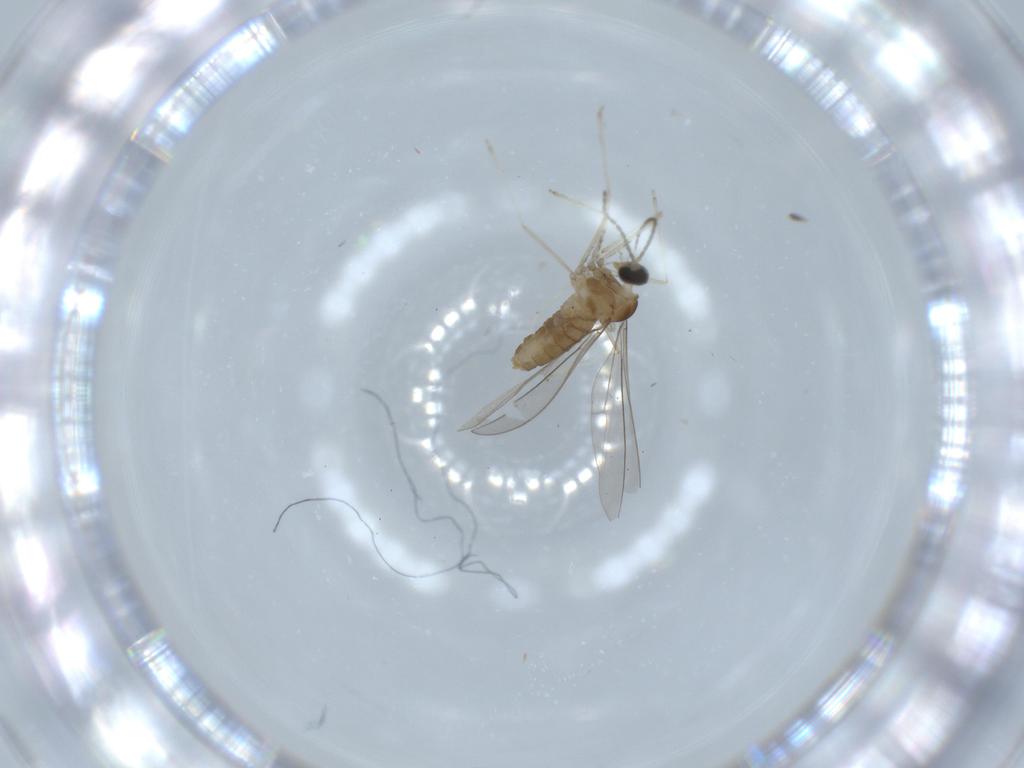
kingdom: Animalia
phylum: Arthropoda
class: Insecta
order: Diptera
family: Cecidomyiidae
